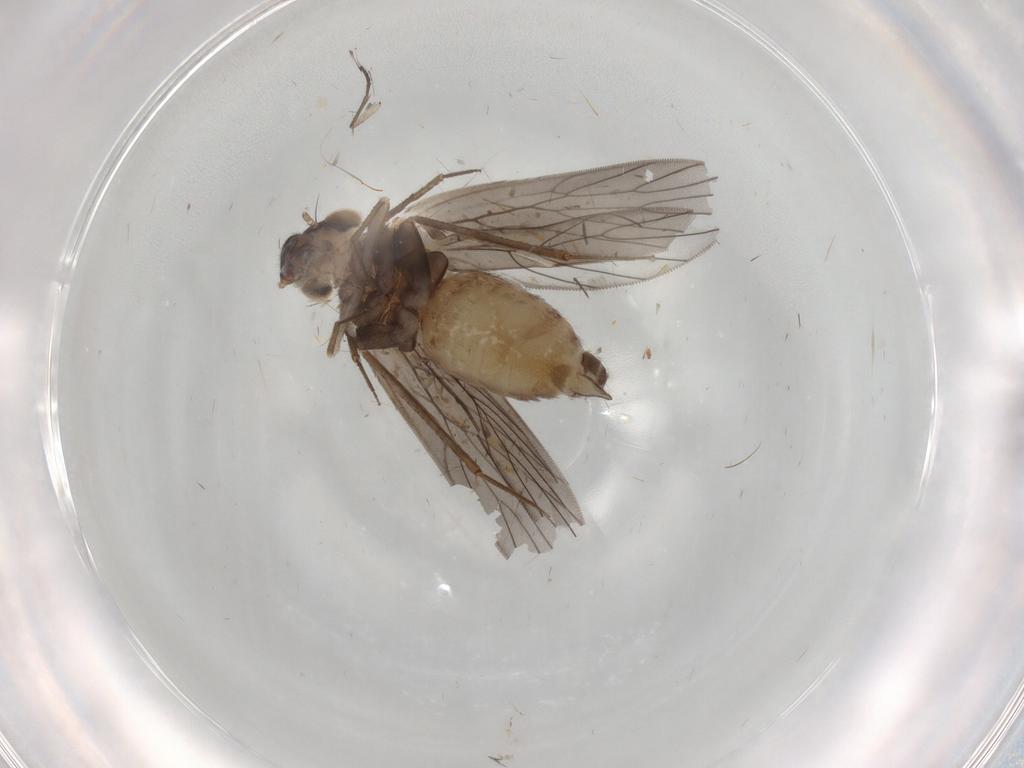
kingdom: Animalia
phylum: Arthropoda
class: Insecta
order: Psocodea
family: Lepidopsocidae
